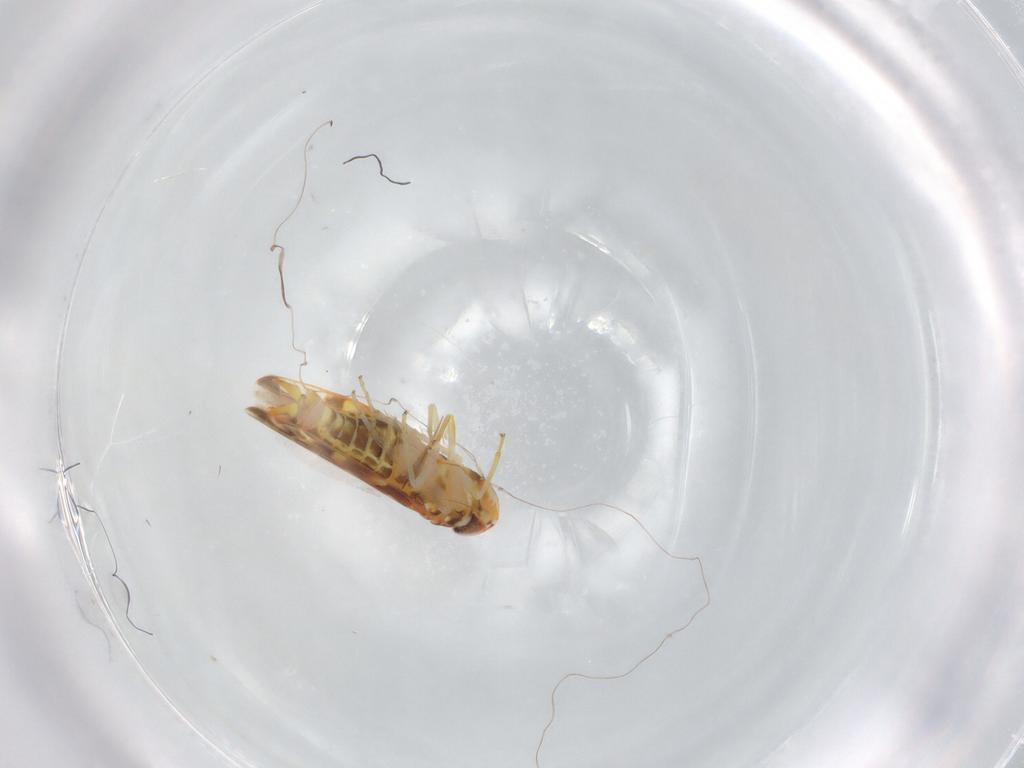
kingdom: Animalia
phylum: Arthropoda
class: Insecta
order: Hemiptera
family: Cicadellidae
